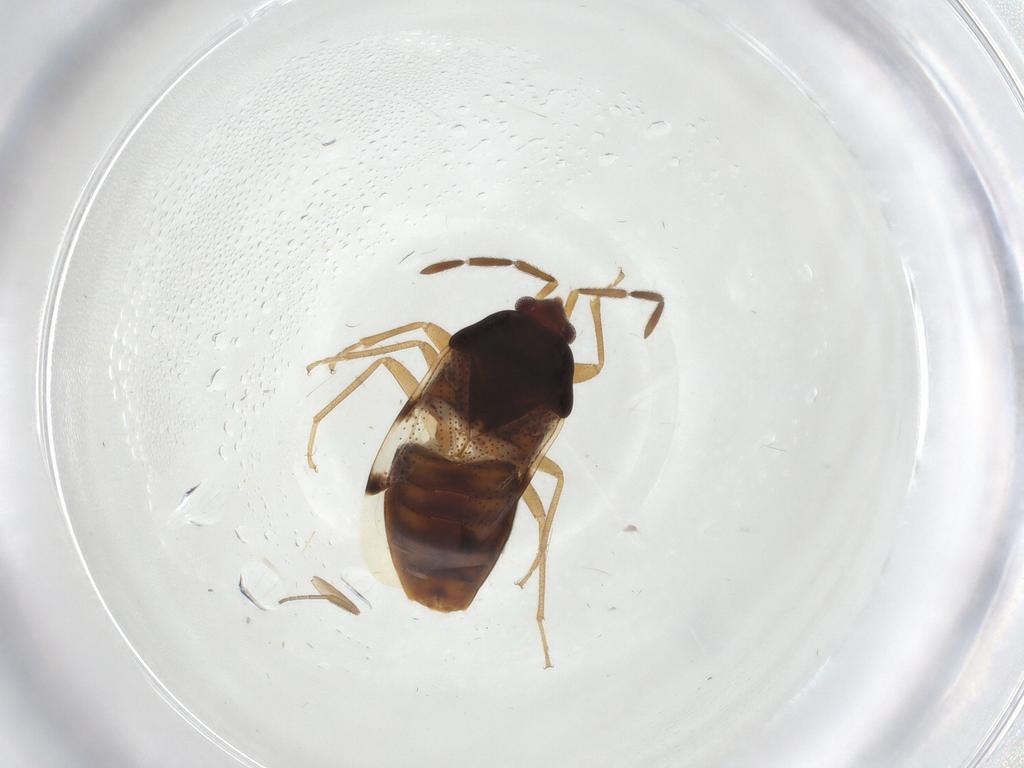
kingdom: Animalia
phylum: Arthropoda
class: Insecta
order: Hemiptera
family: Rhyparochromidae
